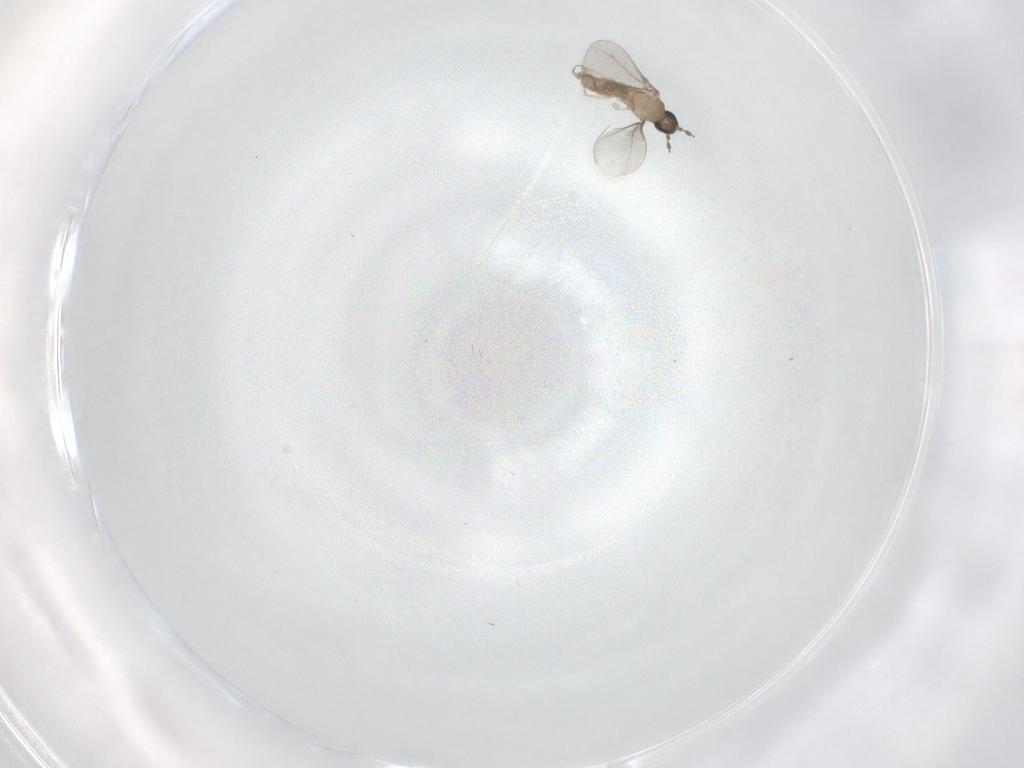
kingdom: Animalia
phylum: Arthropoda
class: Insecta
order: Diptera
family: Cecidomyiidae
